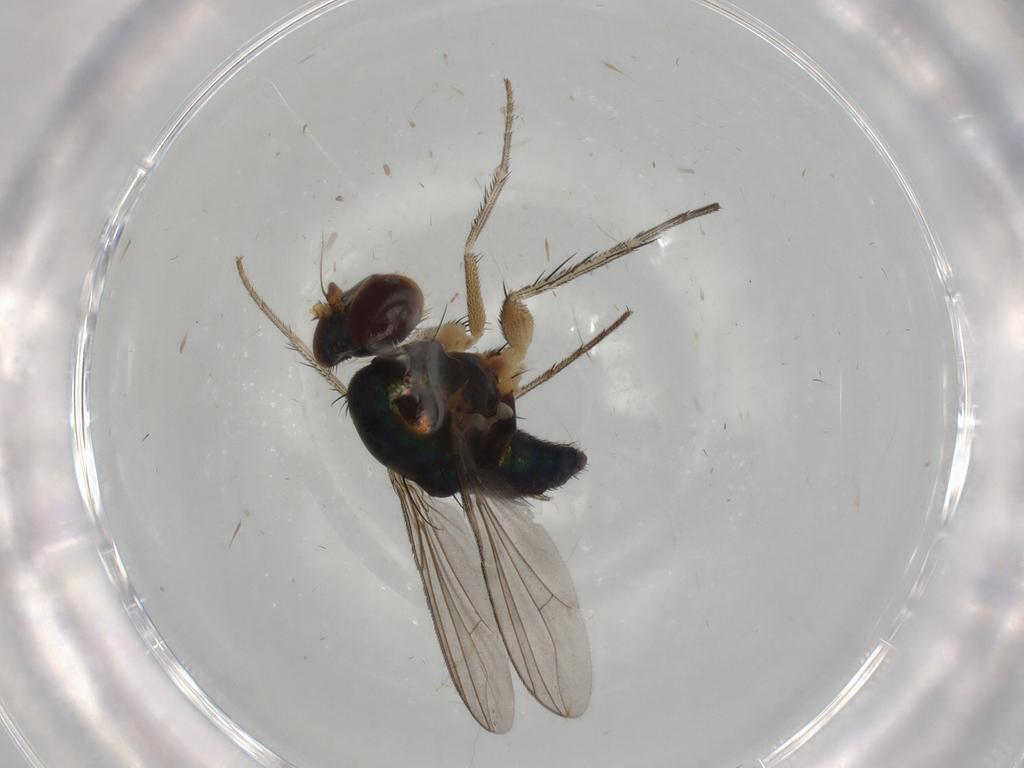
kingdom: Animalia
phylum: Arthropoda
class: Insecta
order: Diptera
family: Dolichopodidae
